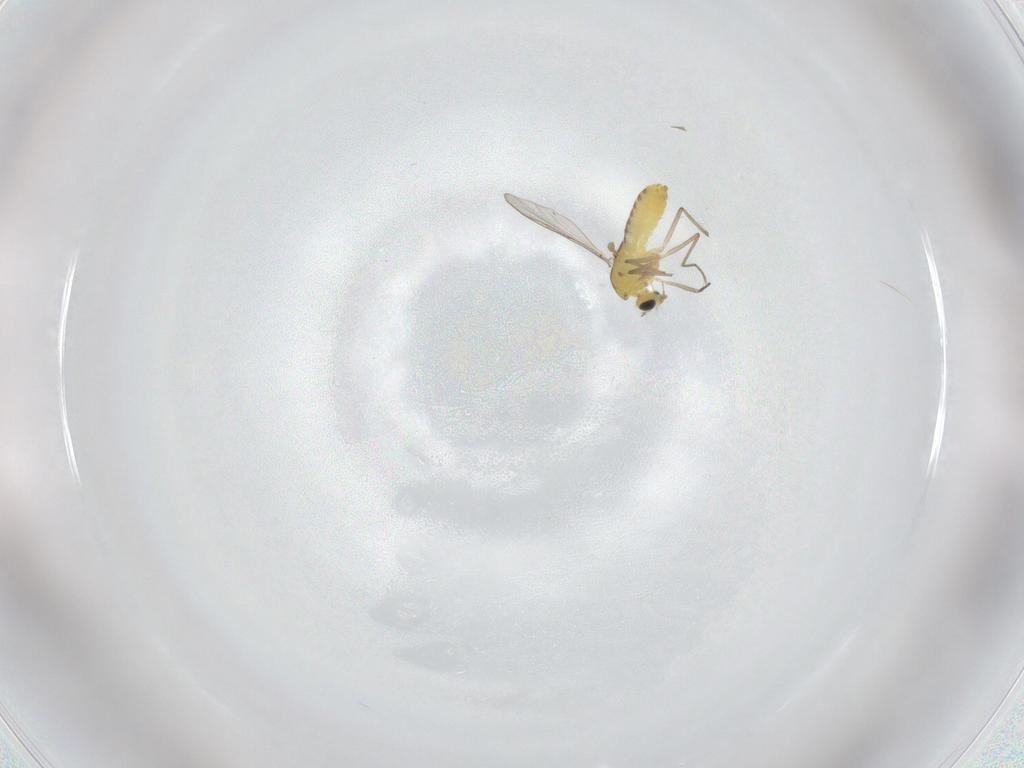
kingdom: Animalia
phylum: Arthropoda
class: Insecta
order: Diptera
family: Chironomidae
